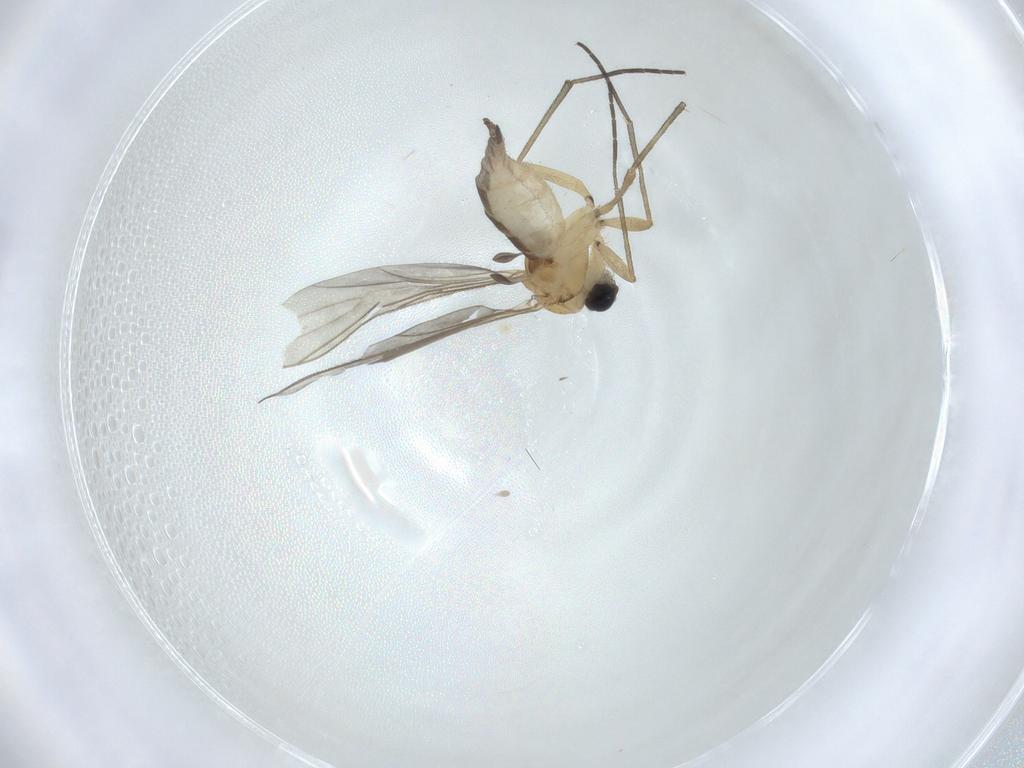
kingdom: Animalia
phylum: Arthropoda
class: Insecta
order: Diptera
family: Sciaridae
